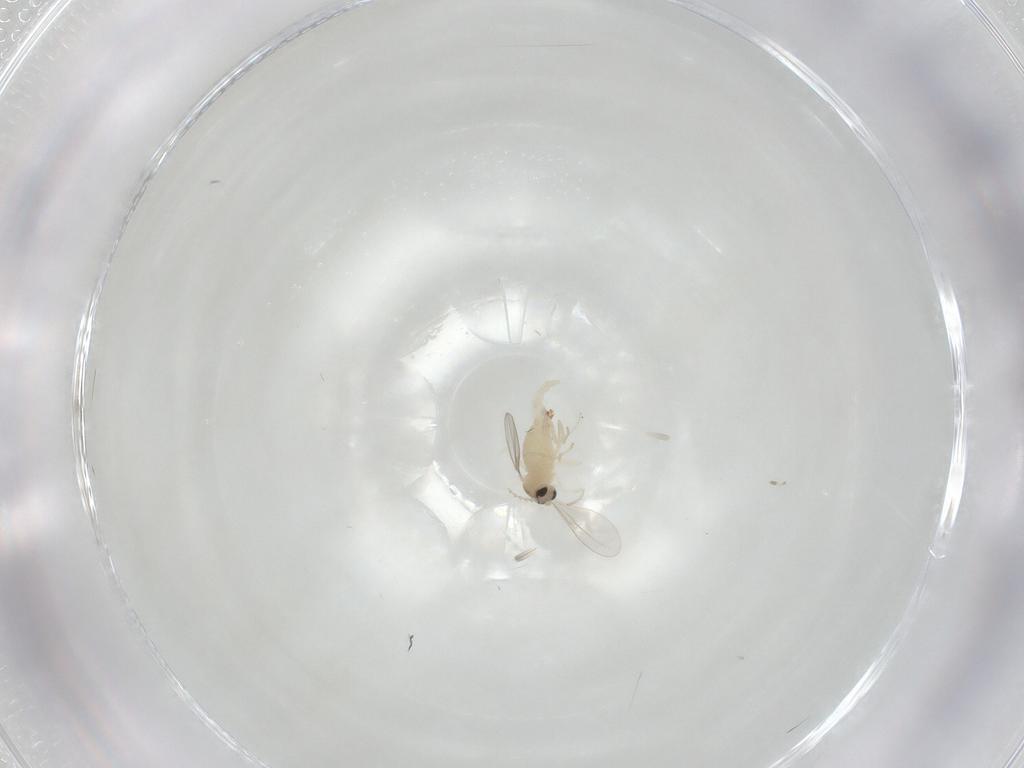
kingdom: Animalia
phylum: Arthropoda
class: Insecta
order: Diptera
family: Cecidomyiidae
